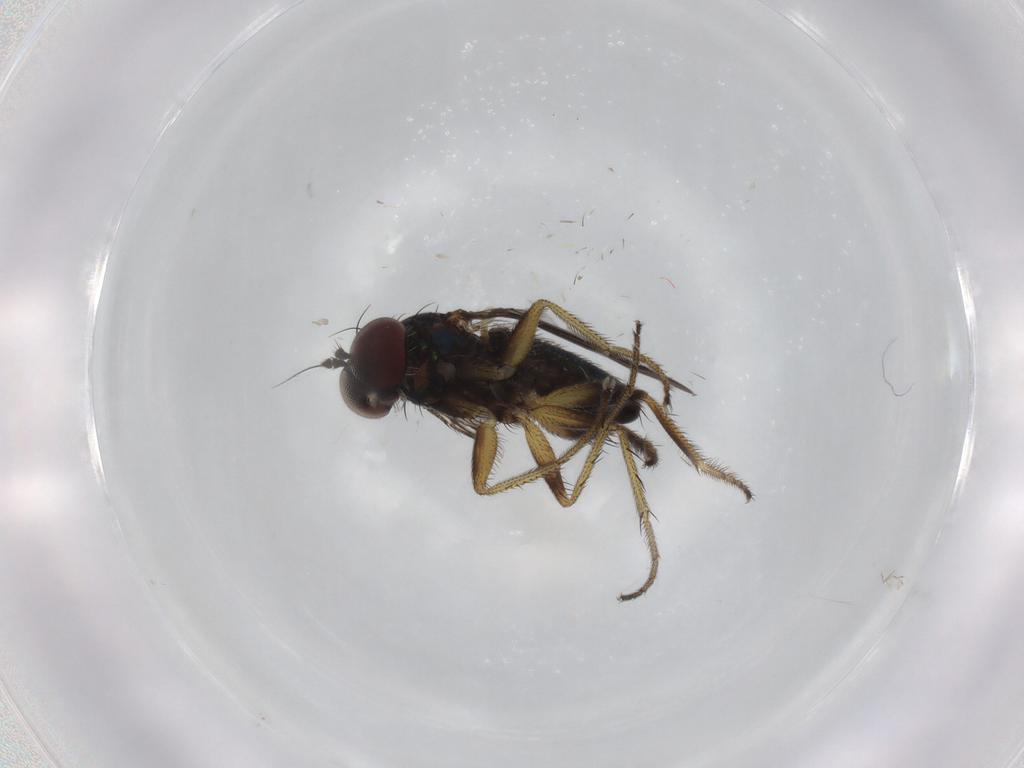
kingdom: Animalia
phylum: Arthropoda
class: Insecta
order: Diptera
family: Dolichopodidae
